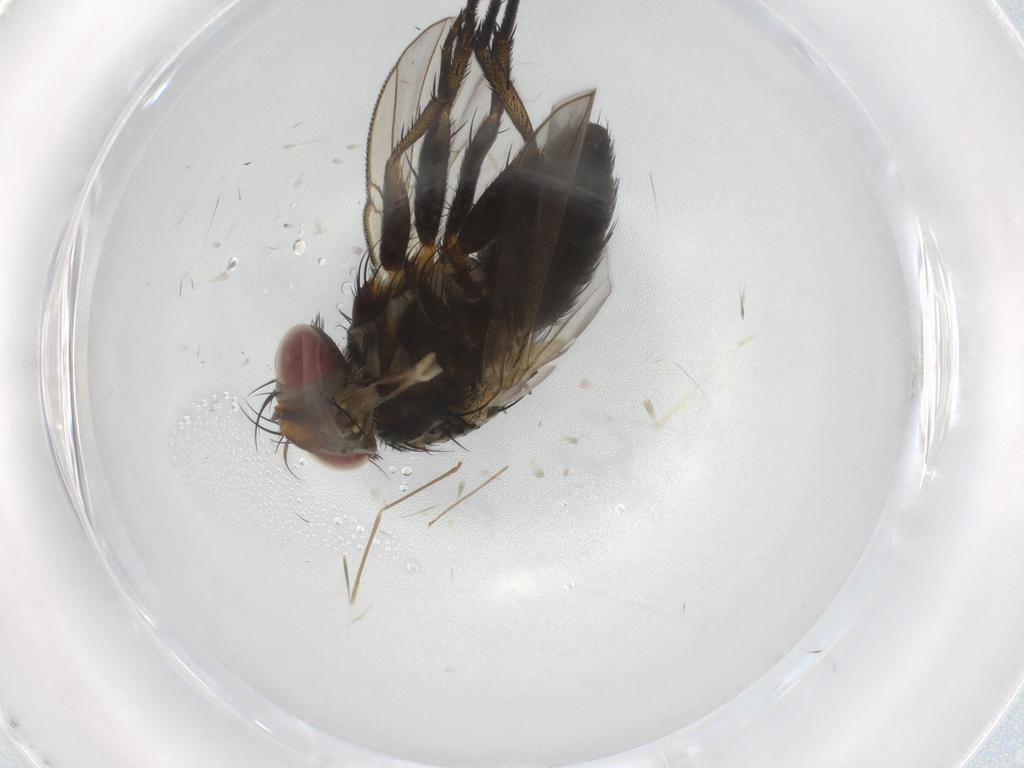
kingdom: Animalia
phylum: Arthropoda
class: Insecta
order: Diptera
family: Tachinidae
